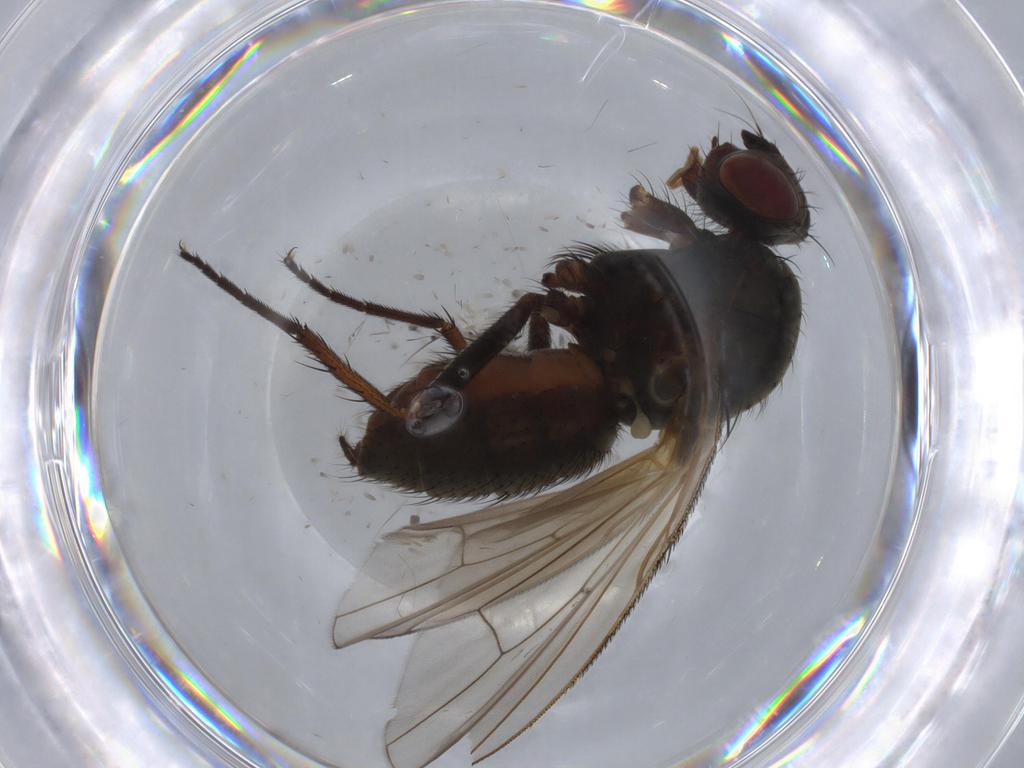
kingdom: Animalia
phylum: Arthropoda
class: Insecta
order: Diptera
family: Anthomyiidae
